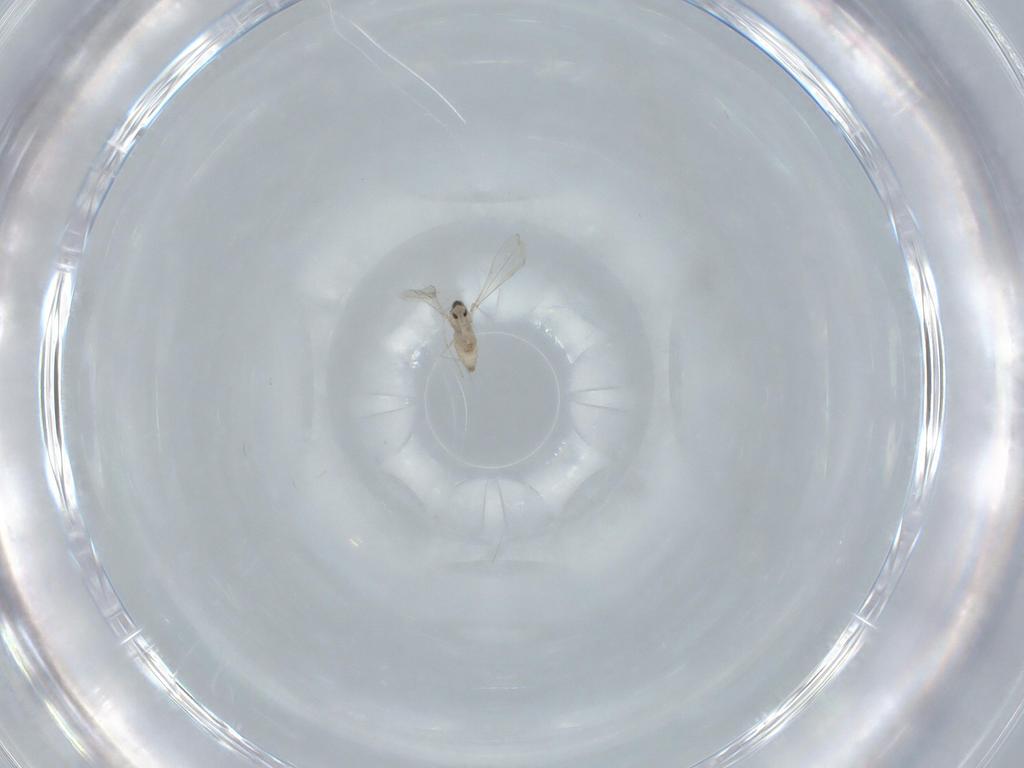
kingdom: Animalia
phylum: Arthropoda
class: Insecta
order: Diptera
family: Cecidomyiidae
